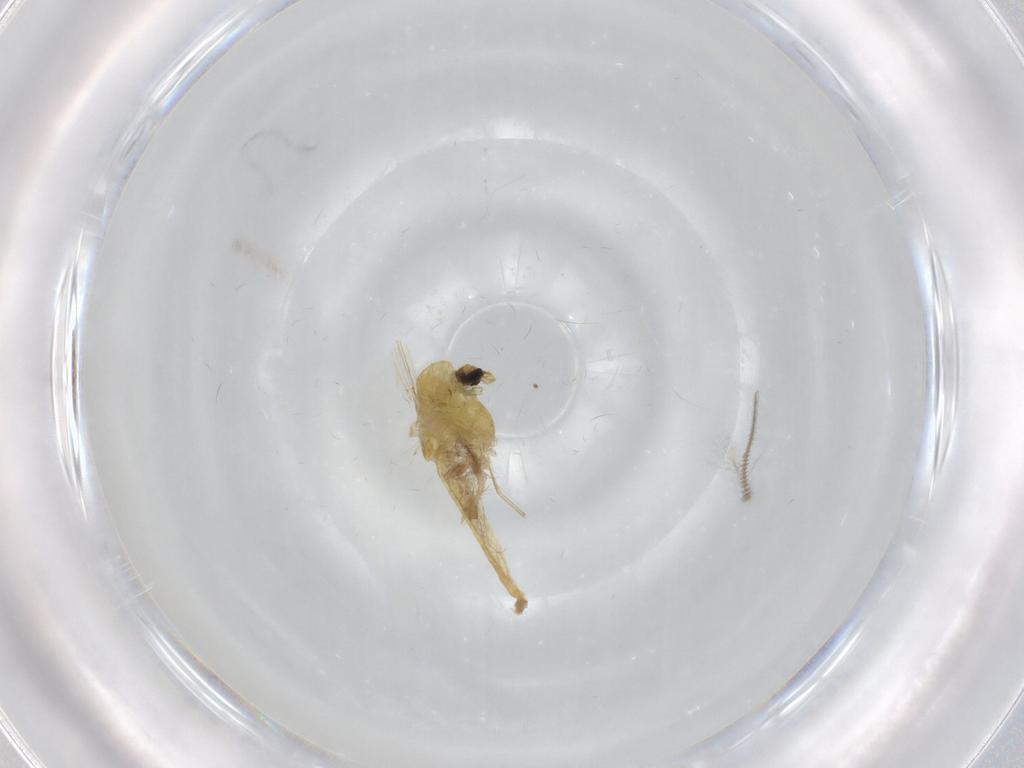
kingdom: Animalia
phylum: Arthropoda
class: Insecta
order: Diptera
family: Chironomidae
